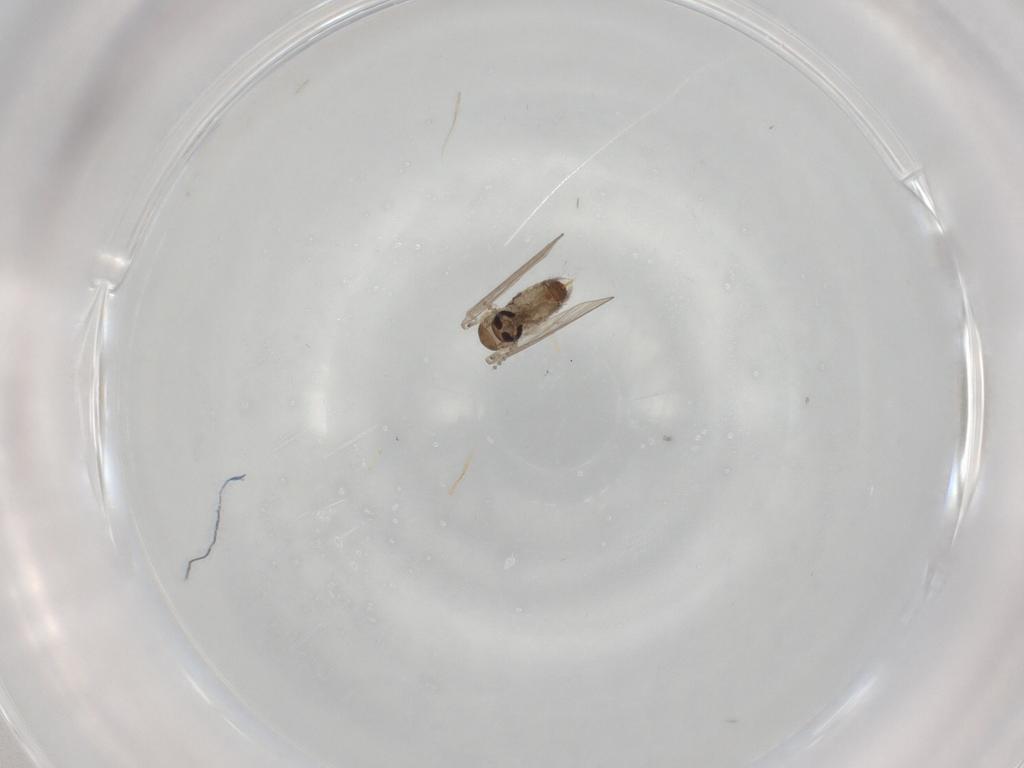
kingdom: Animalia
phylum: Arthropoda
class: Insecta
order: Diptera
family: Psychodidae
